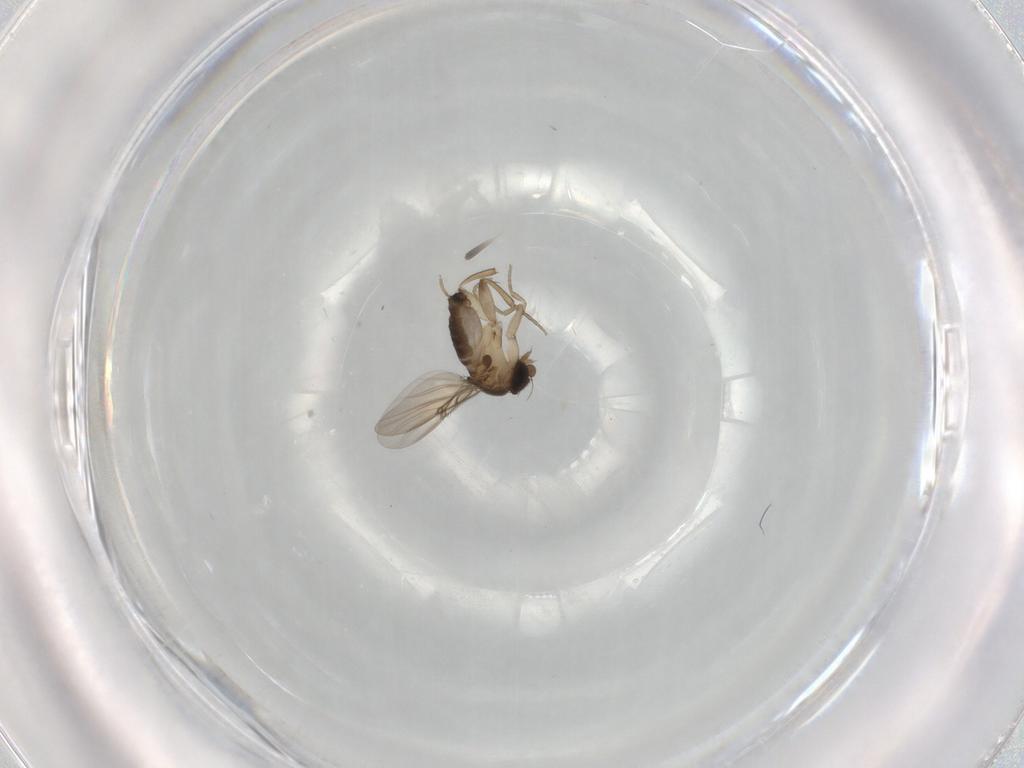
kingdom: Animalia
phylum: Arthropoda
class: Insecta
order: Diptera
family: Phoridae
